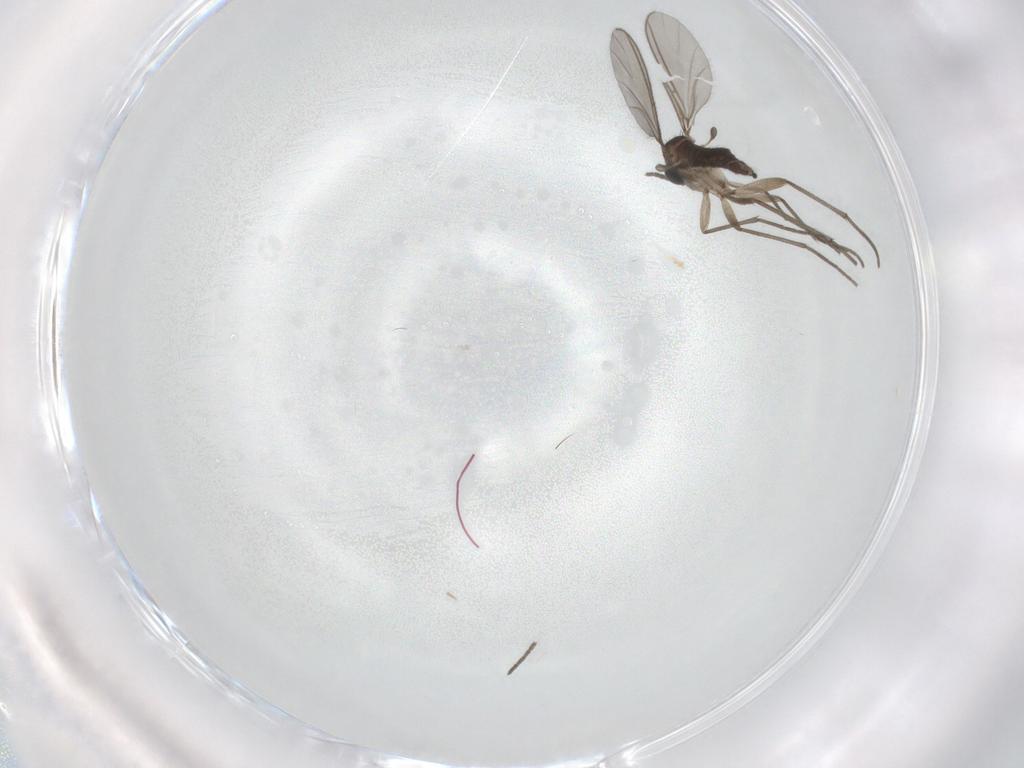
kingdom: Animalia
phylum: Arthropoda
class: Insecta
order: Diptera
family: Sciaridae
